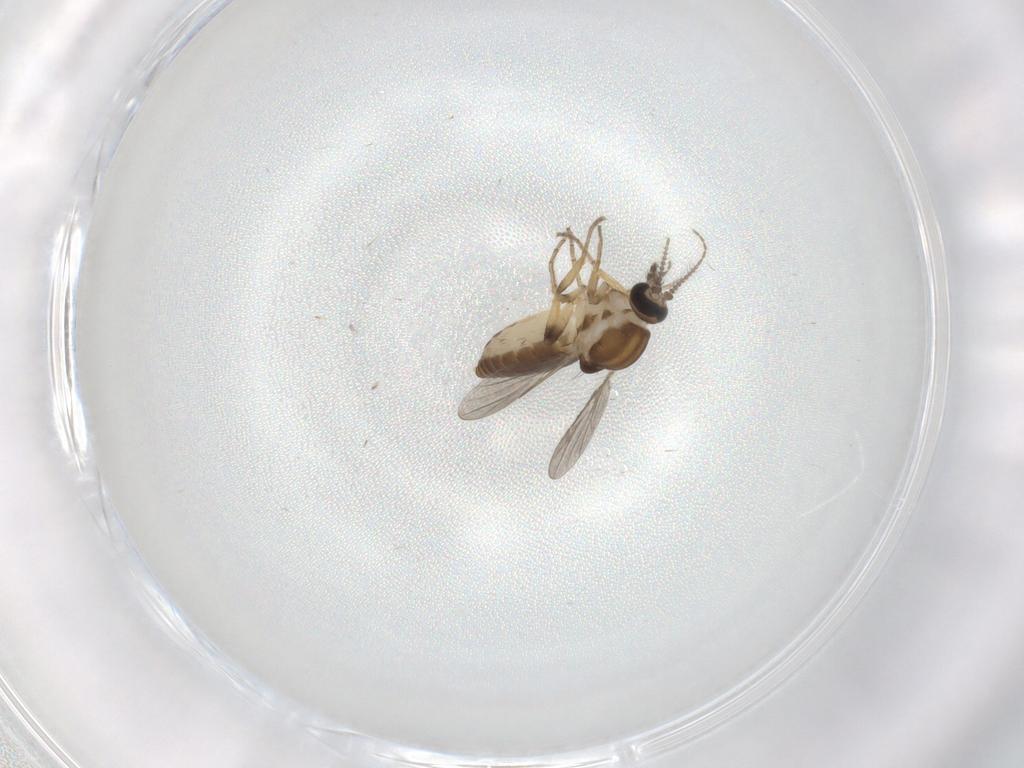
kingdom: Animalia
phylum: Arthropoda
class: Insecta
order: Diptera
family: Ceratopogonidae
